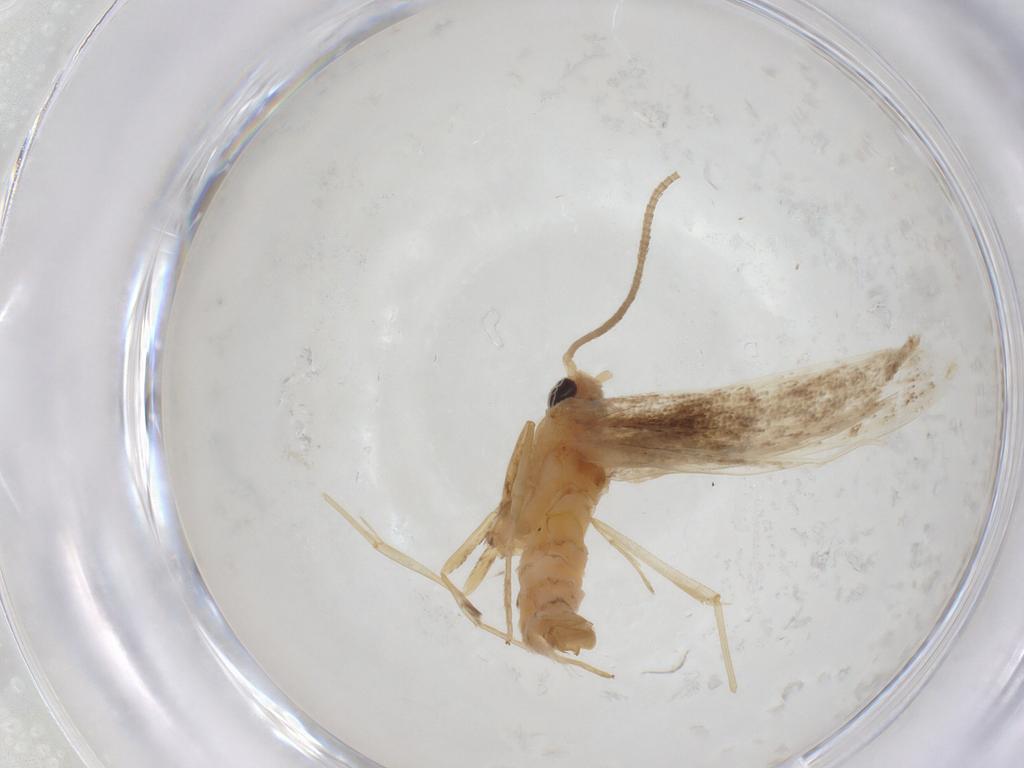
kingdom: Animalia
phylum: Arthropoda
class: Insecta
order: Lepidoptera
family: Gracillariidae
